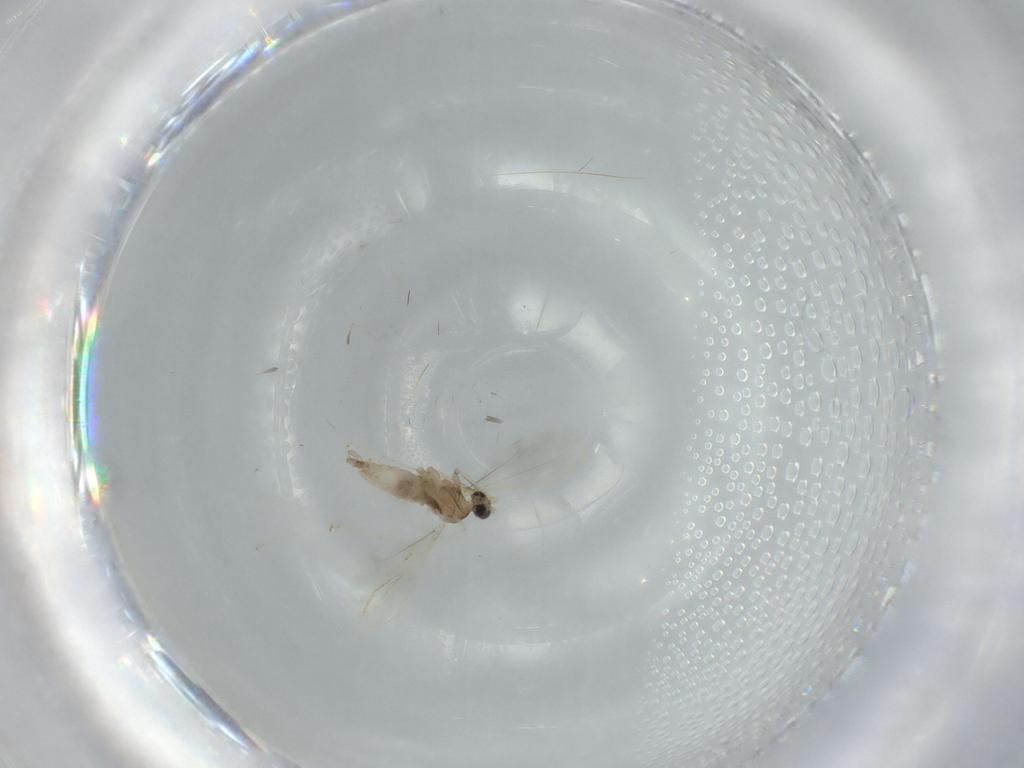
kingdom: Animalia
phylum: Arthropoda
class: Insecta
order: Diptera
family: Cecidomyiidae
